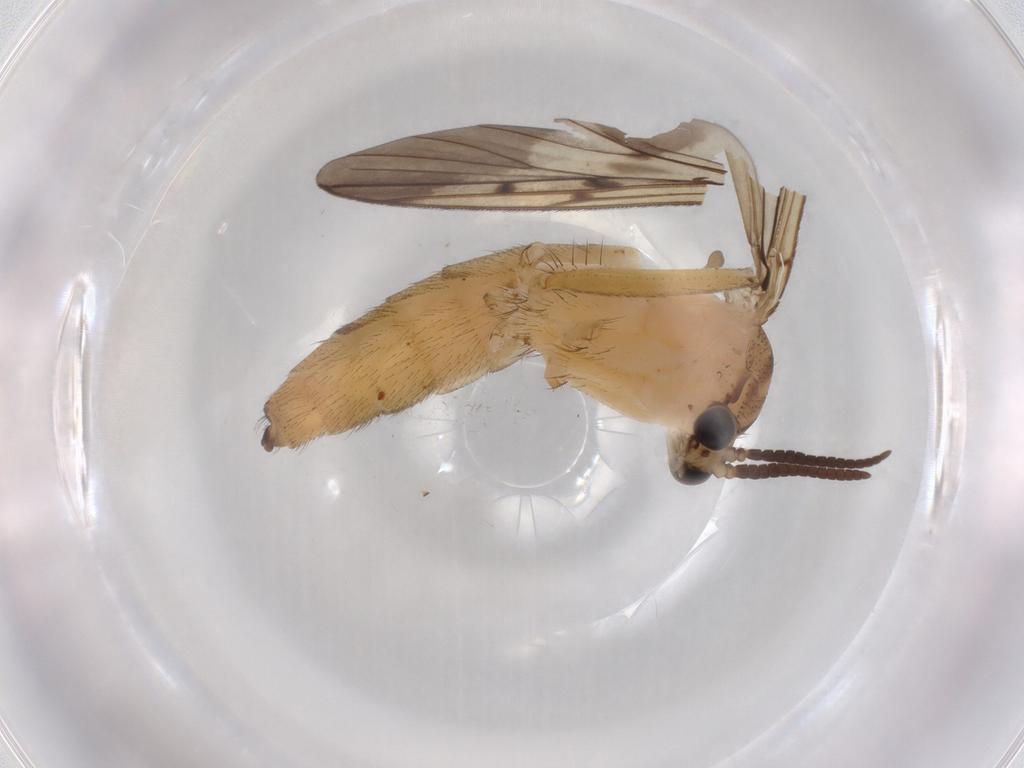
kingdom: Animalia
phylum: Arthropoda
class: Insecta
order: Diptera
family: Mycetophilidae
